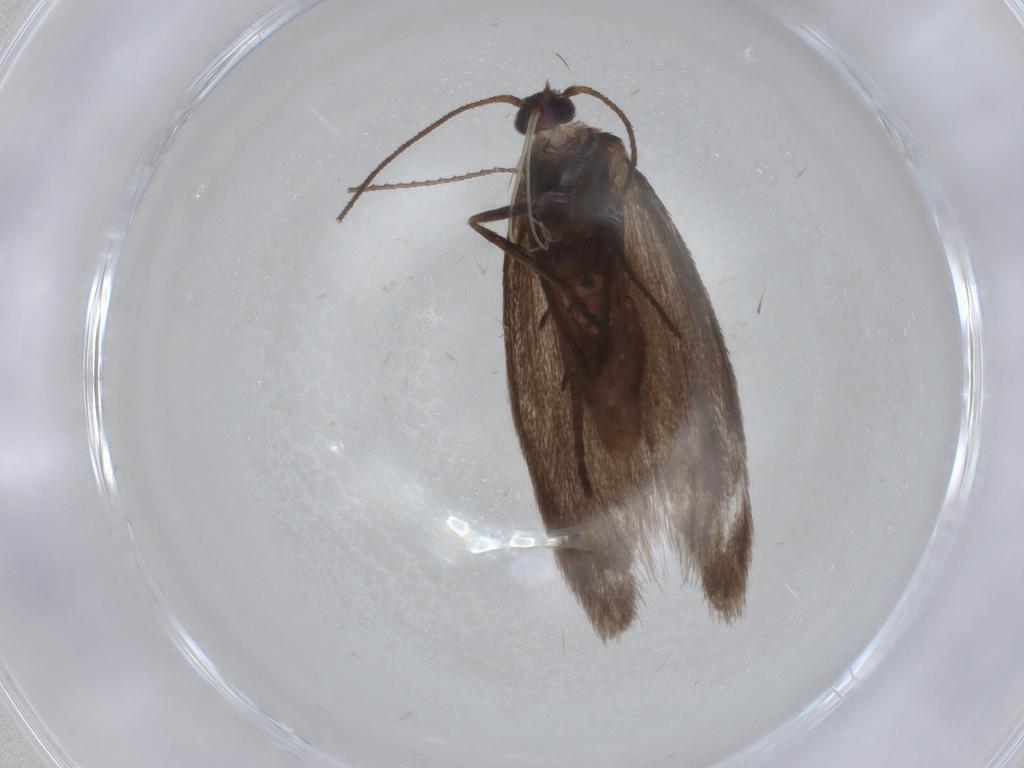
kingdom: Animalia
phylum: Arthropoda
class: Insecta
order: Lepidoptera
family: Limacodidae
